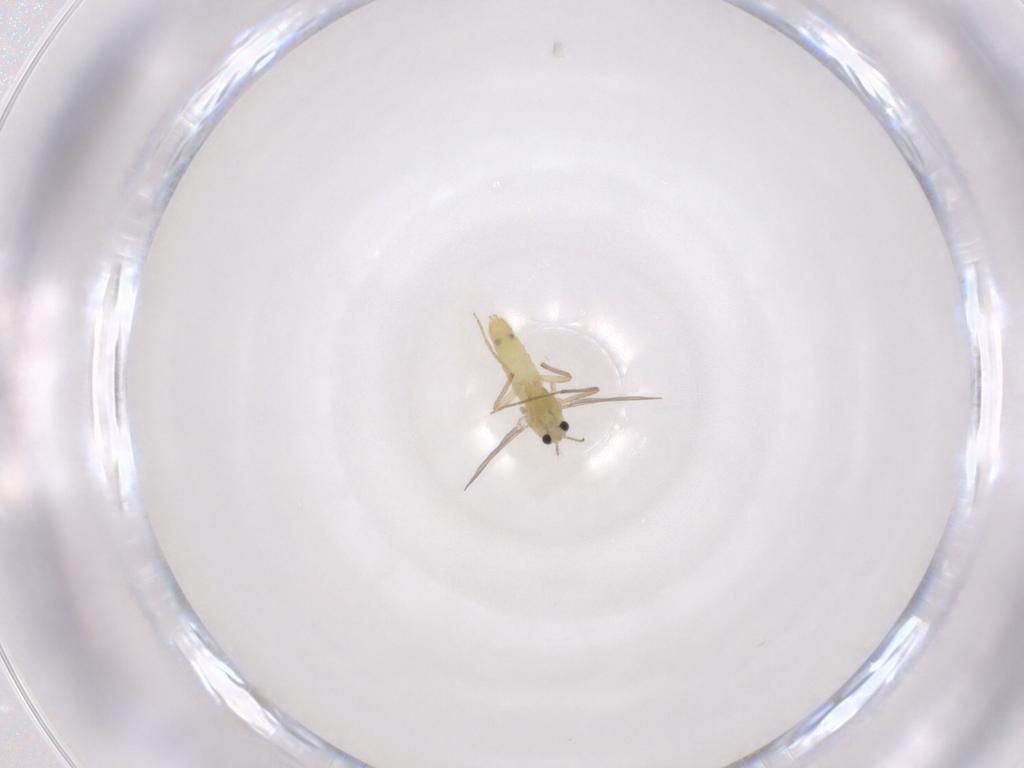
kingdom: Animalia
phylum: Arthropoda
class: Insecta
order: Diptera
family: Chironomidae
